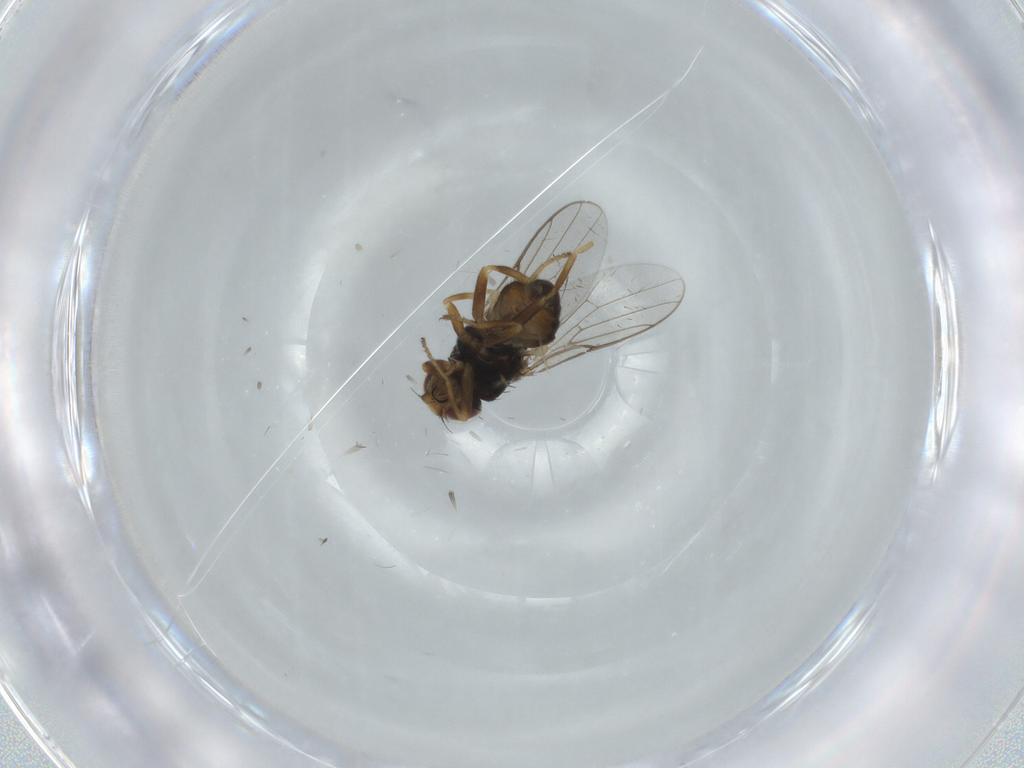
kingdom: Animalia
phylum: Arthropoda
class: Insecta
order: Diptera
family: Chloropidae
